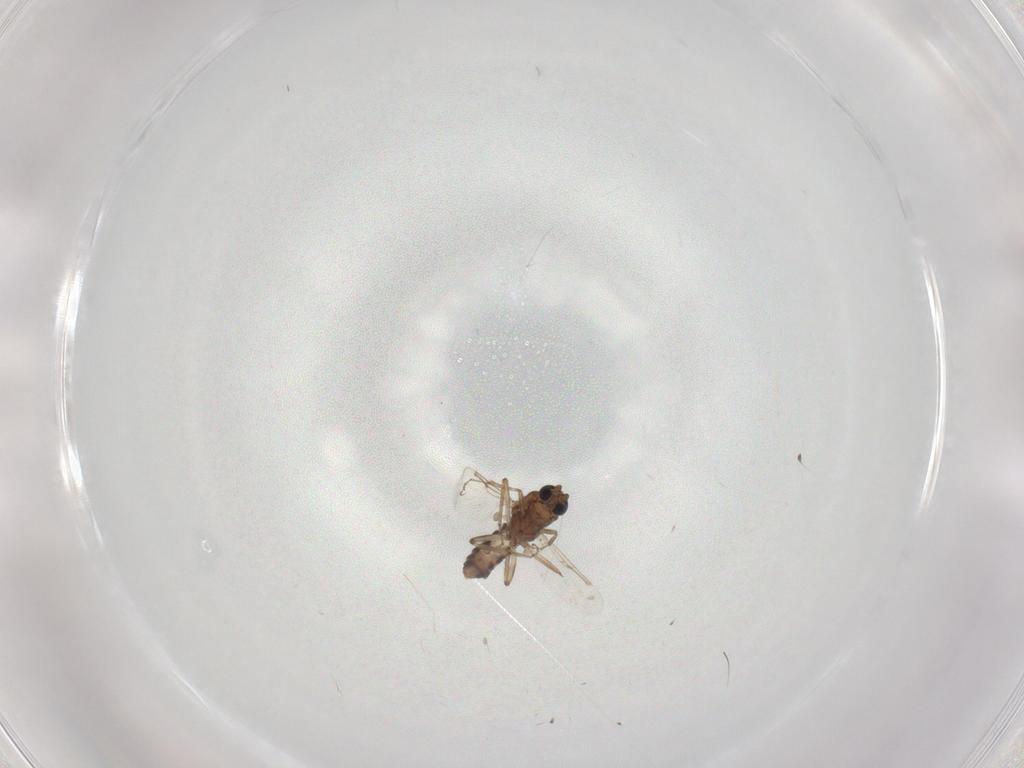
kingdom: Animalia
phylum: Arthropoda
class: Insecta
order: Diptera
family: Ceratopogonidae
